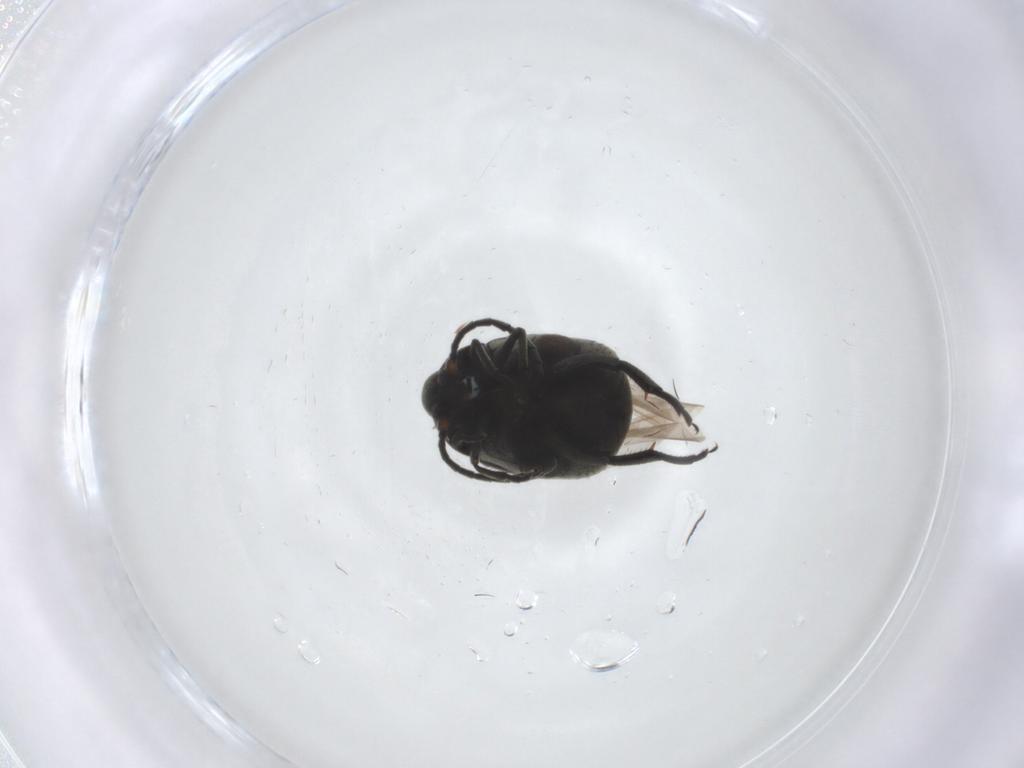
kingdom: Animalia
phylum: Arthropoda
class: Insecta
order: Coleoptera
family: Chrysomelidae
